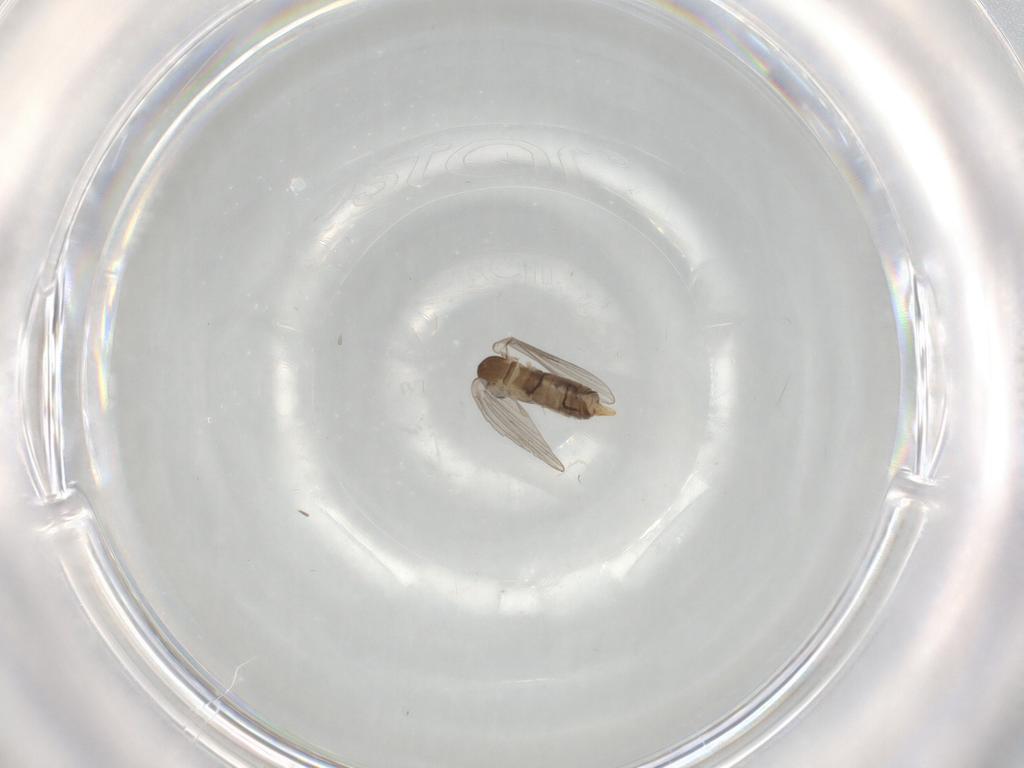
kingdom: Animalia
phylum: Arthropoda
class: Insecta
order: Diptera
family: Psychodidae
